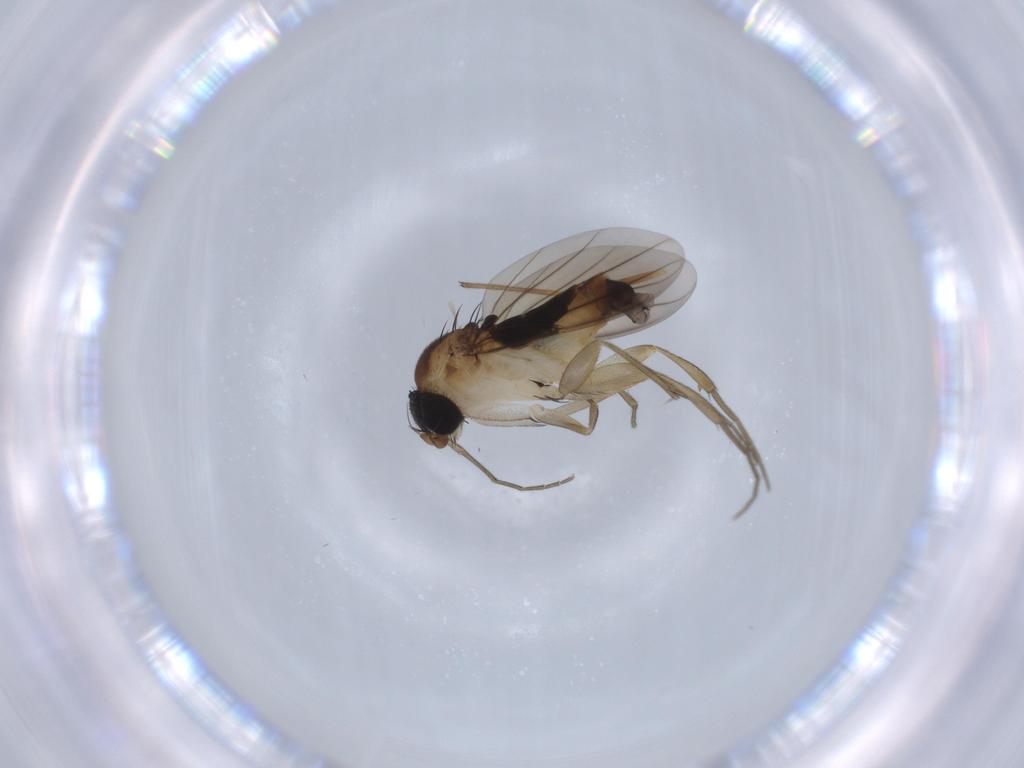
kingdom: Animalia
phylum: Arthropoda
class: Insecta
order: Diptera
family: Phoridae
